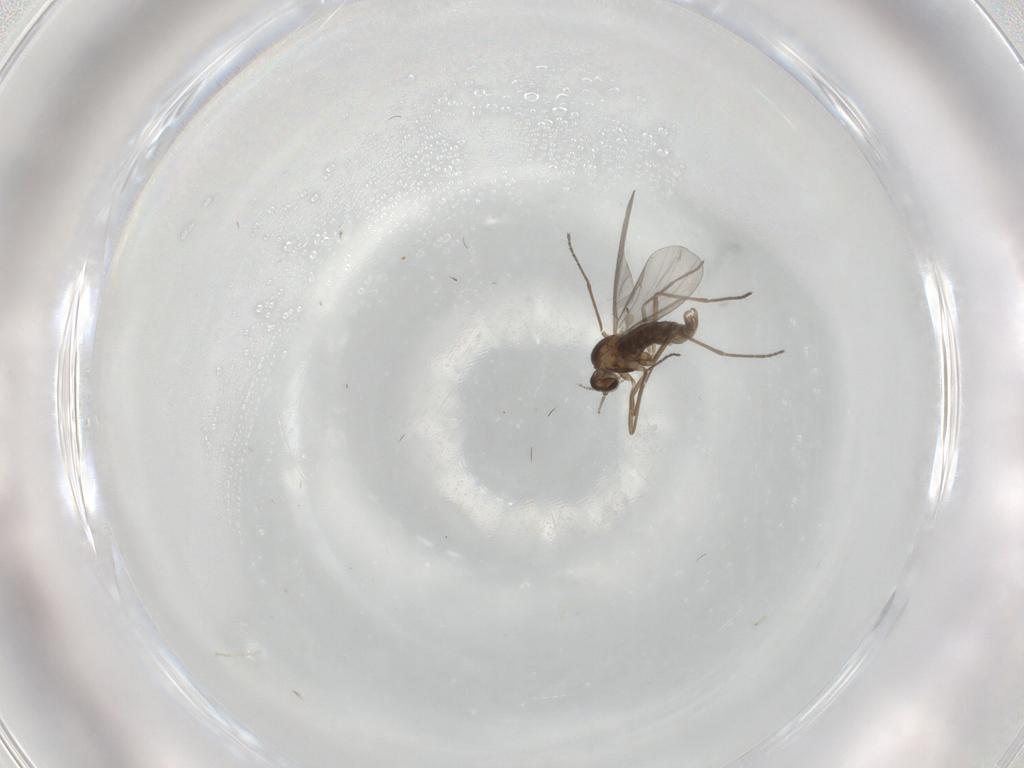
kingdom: Animalia
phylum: Arthropoda
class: Insecta
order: Diptera
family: Cecidomyiidae
